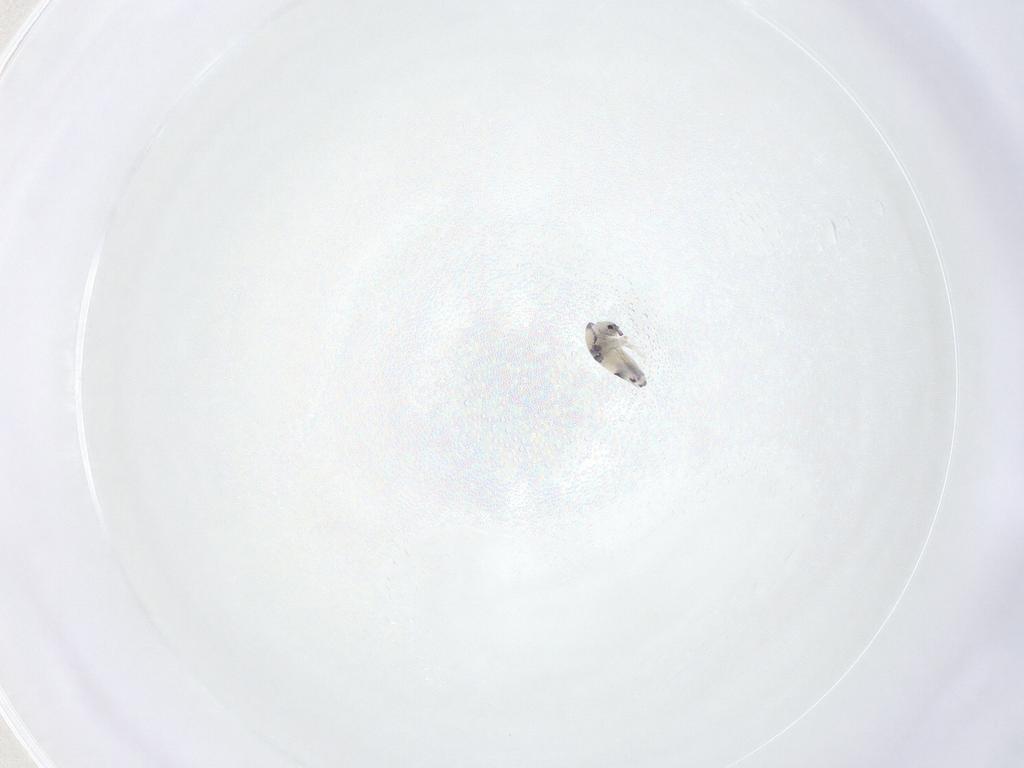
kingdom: Animalia
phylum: Arthropoda
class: Collembola
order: Entomobryomorpha
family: Entomobryidae
